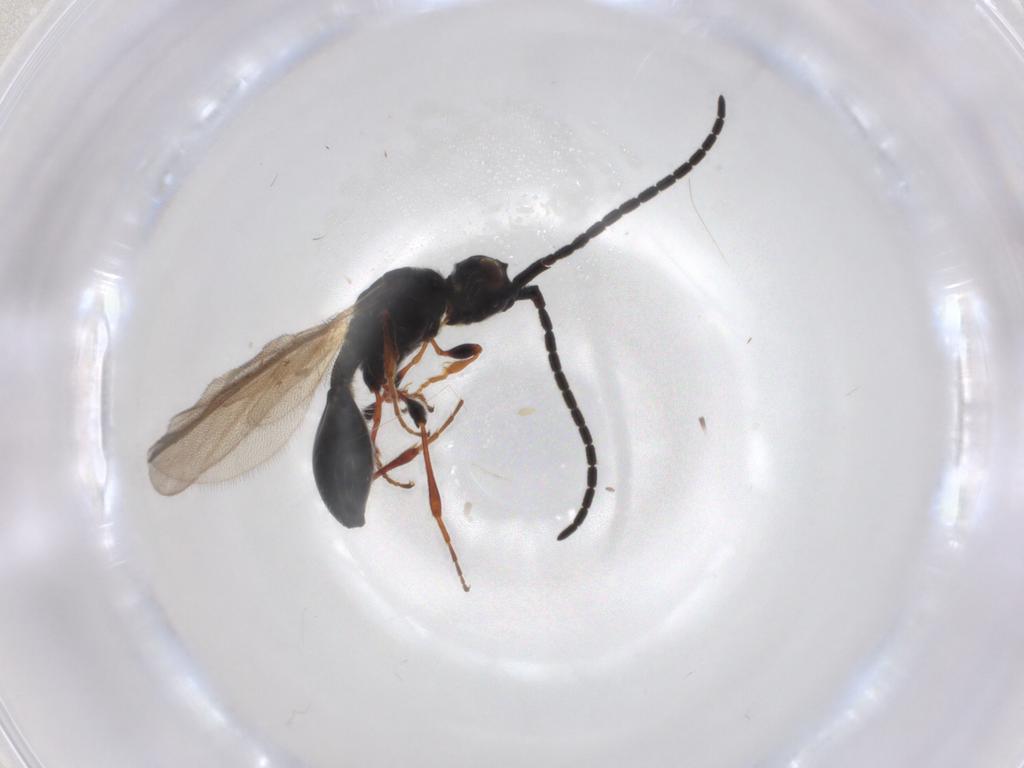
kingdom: Animalia
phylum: Arthropoda
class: Insecta
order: Hymenoptera
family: Diapriidae
